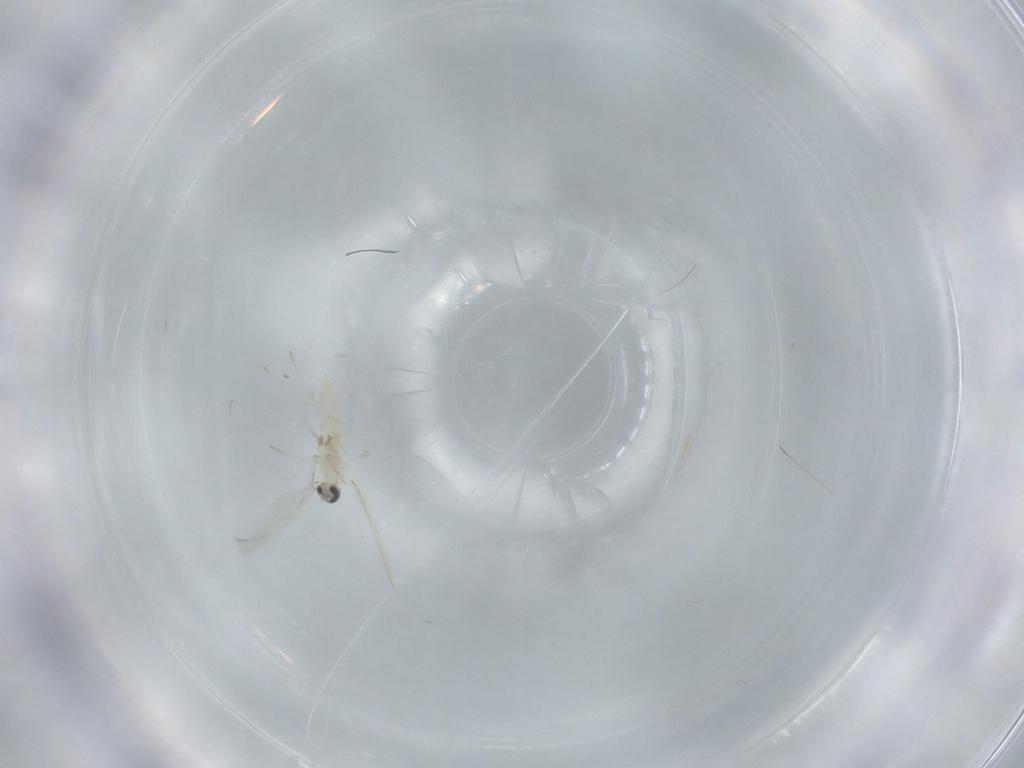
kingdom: Animalia
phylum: Arthropoda
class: Insecta
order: Diptera
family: Cecidomyiidae
